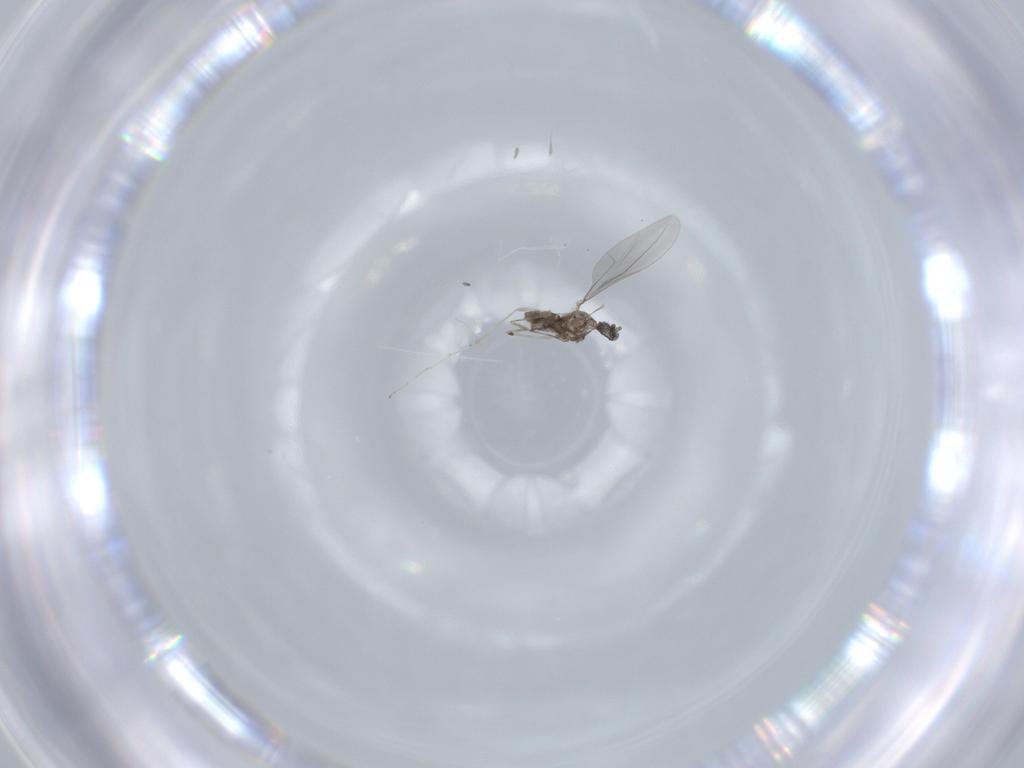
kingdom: Animalia
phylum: Arthropoda
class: Insecta
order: Diptera
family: Cecidomyiidae
